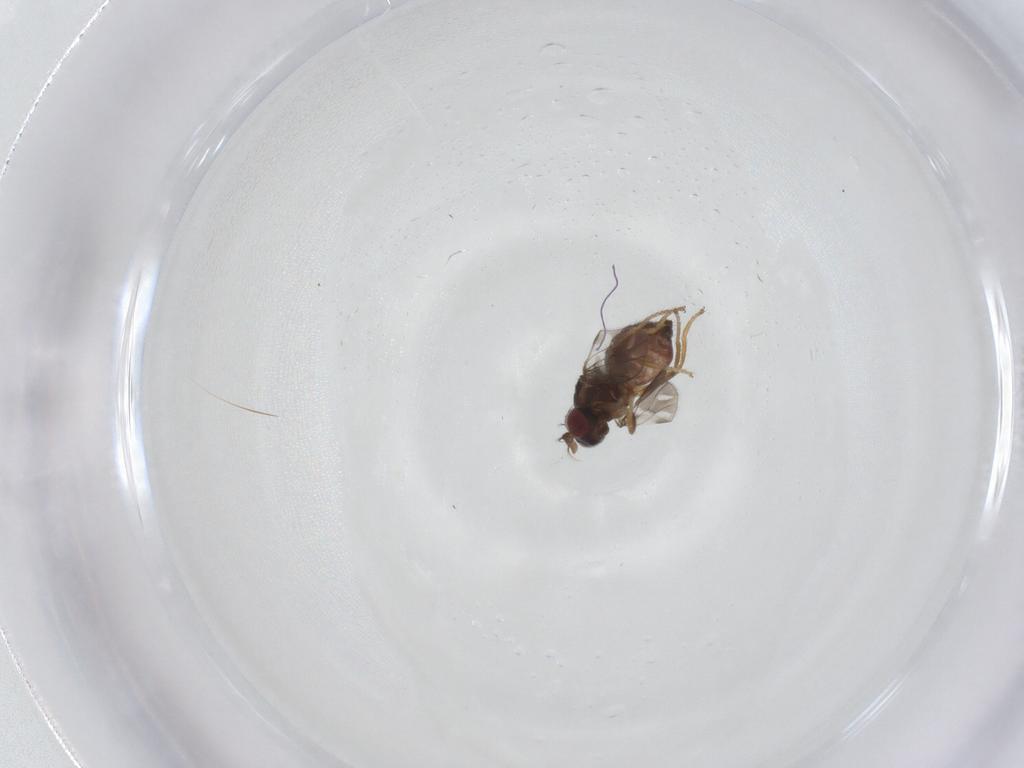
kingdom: Animalia
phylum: Arthropoda
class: Insecta
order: Diptera
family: Ephydridae
